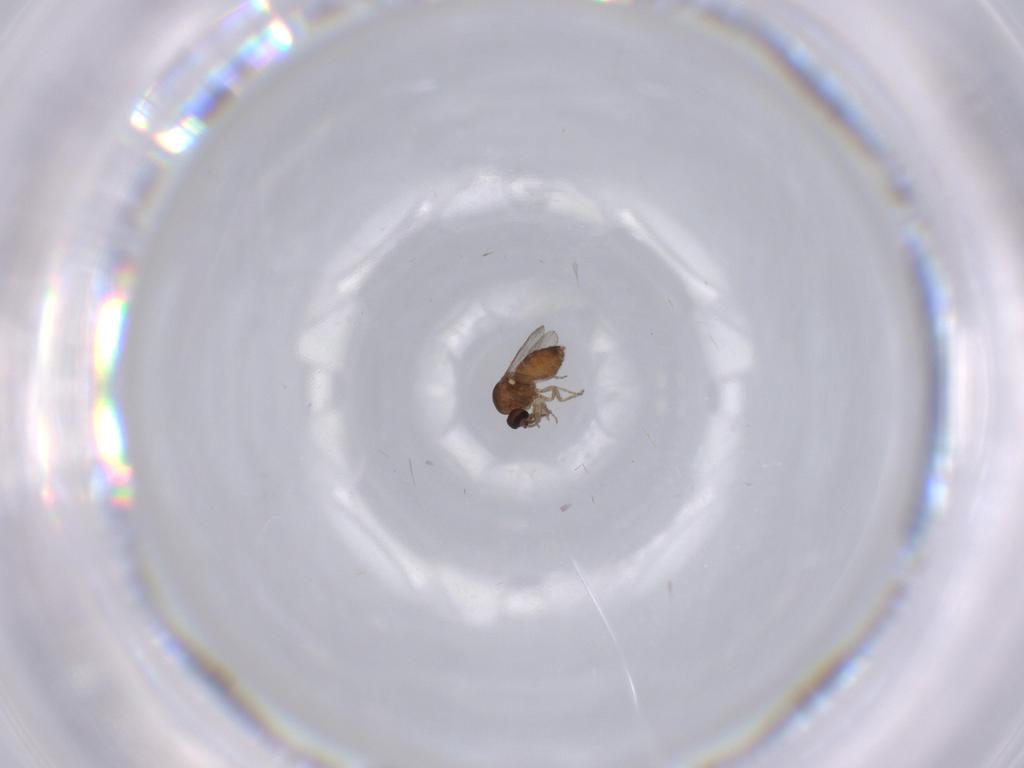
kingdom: Animalia
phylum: Arthropoda
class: Insecta
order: Diptera
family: Ceratopogonidae
